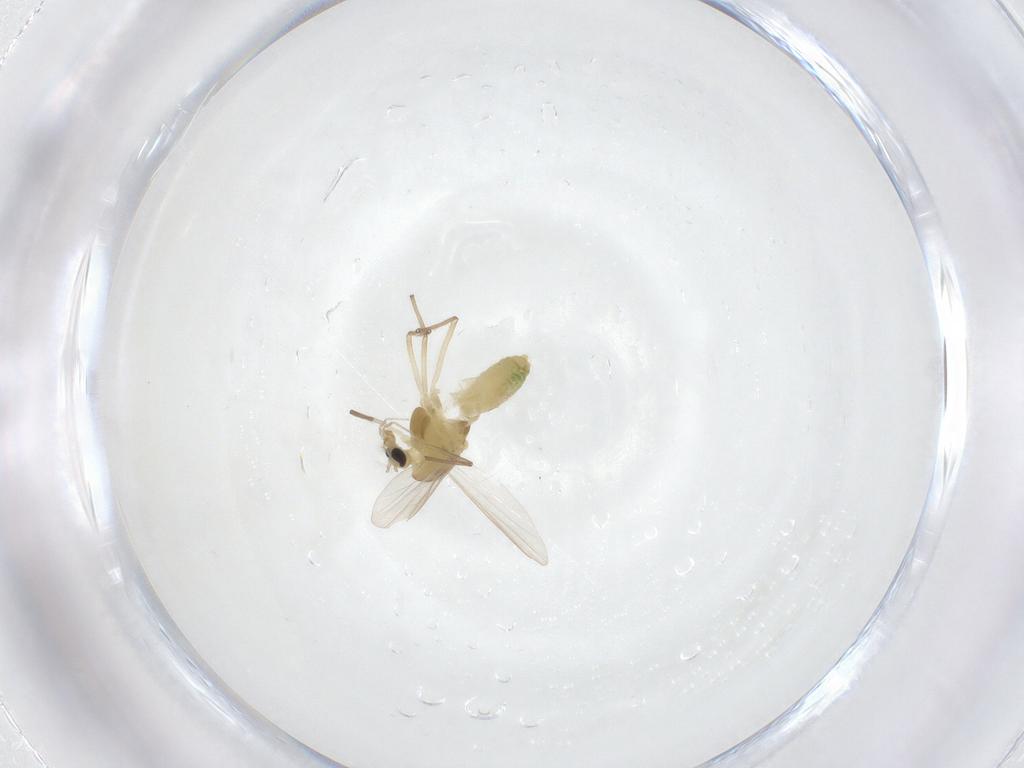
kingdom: Animalia
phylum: Arthropoda
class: Insecta
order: Diptera
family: Chironomidae
